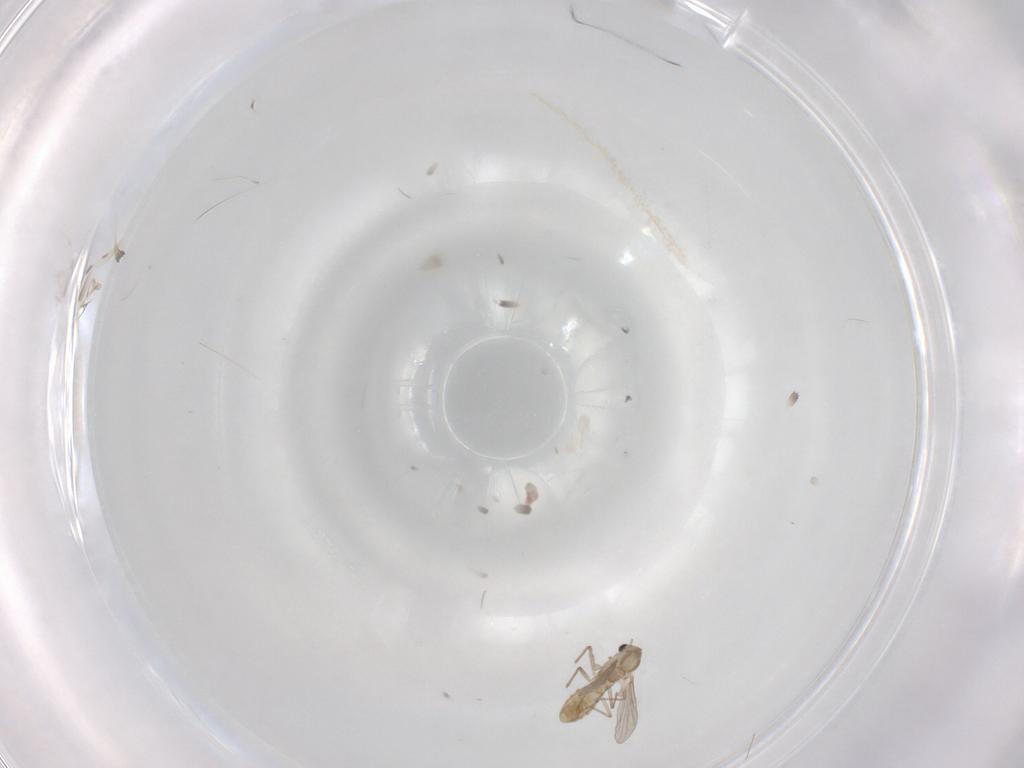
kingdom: Animalia
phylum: Arthropoda
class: Insecta
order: Diptera
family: Chironomidae
